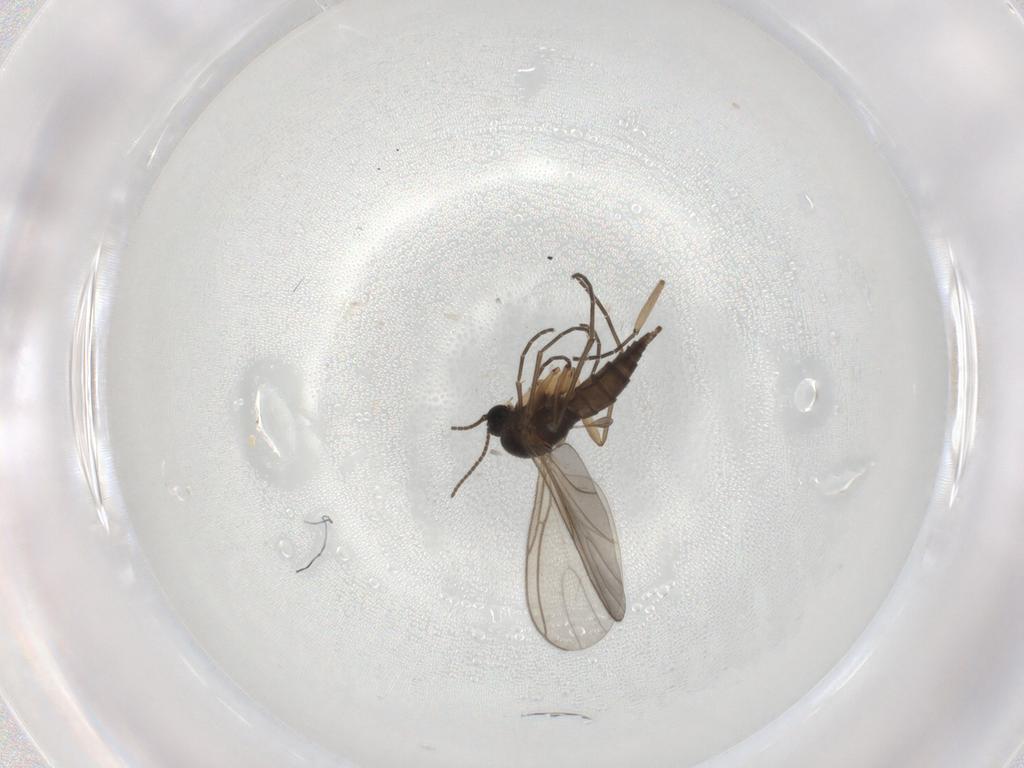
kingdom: Animalia
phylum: Arthropoda
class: Insecta
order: Diptera
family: Sciaridae
